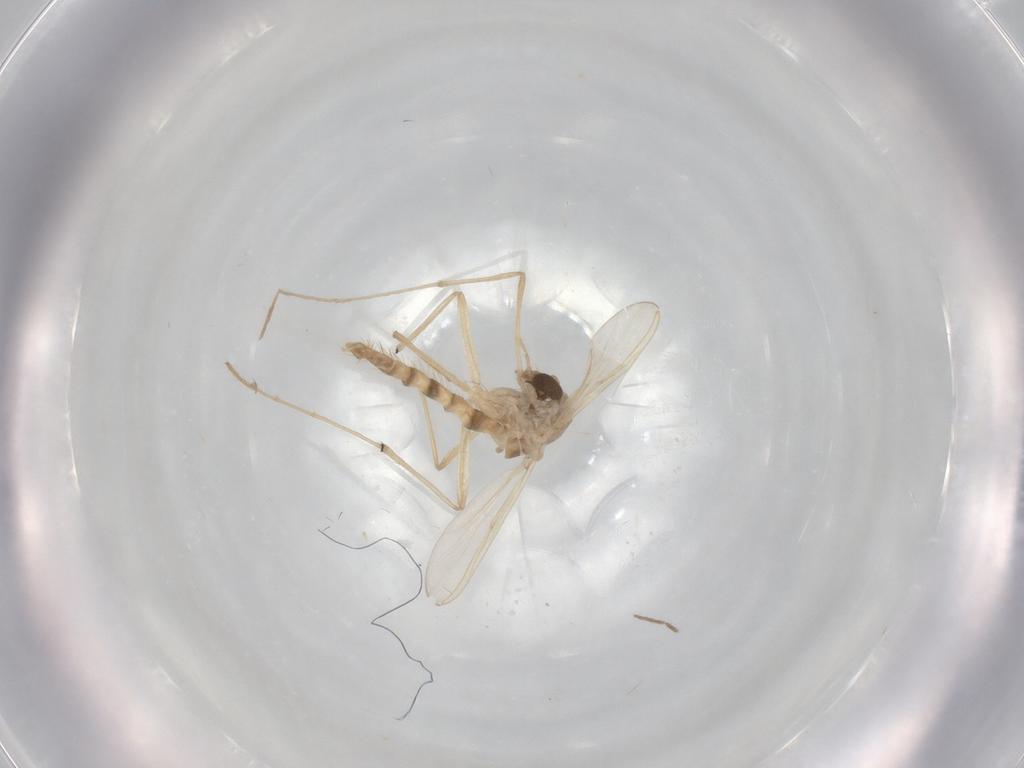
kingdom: Animalia
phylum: Arthropoda
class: Insecta
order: Diptera
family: Chironomidae
